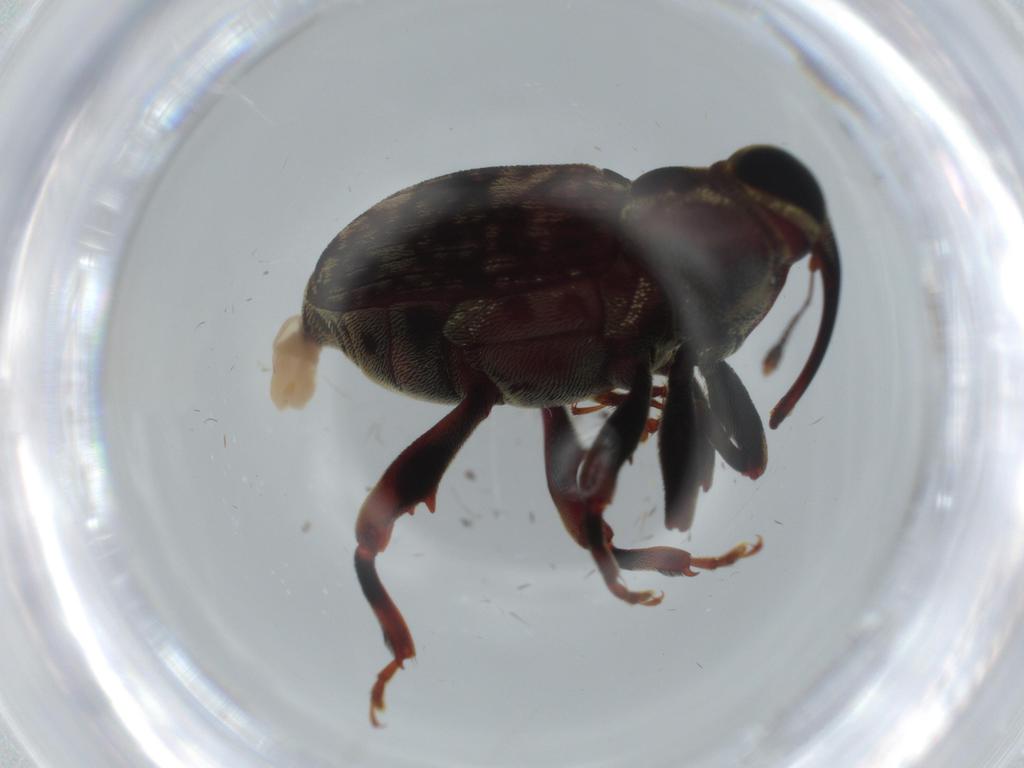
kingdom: Animalia
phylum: Arthropoda
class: Insecta
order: Coleoptera
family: Curculionidae
